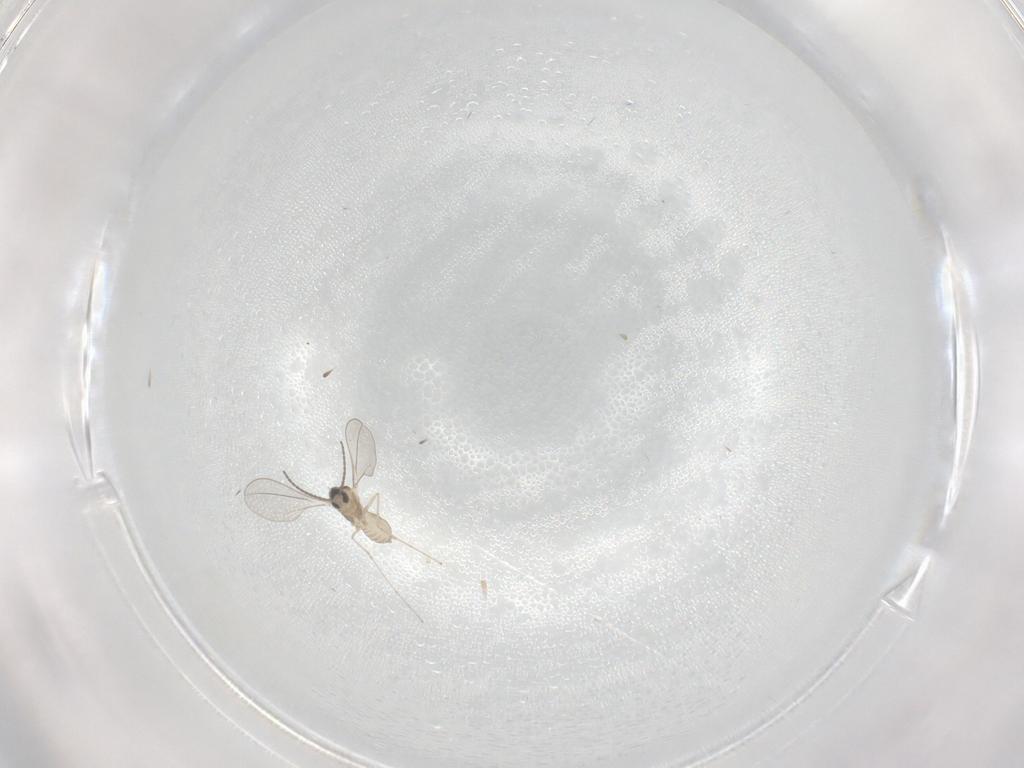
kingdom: Animalia
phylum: Arthropoda
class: Insecta
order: Diptera
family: Cecidomyiidae
